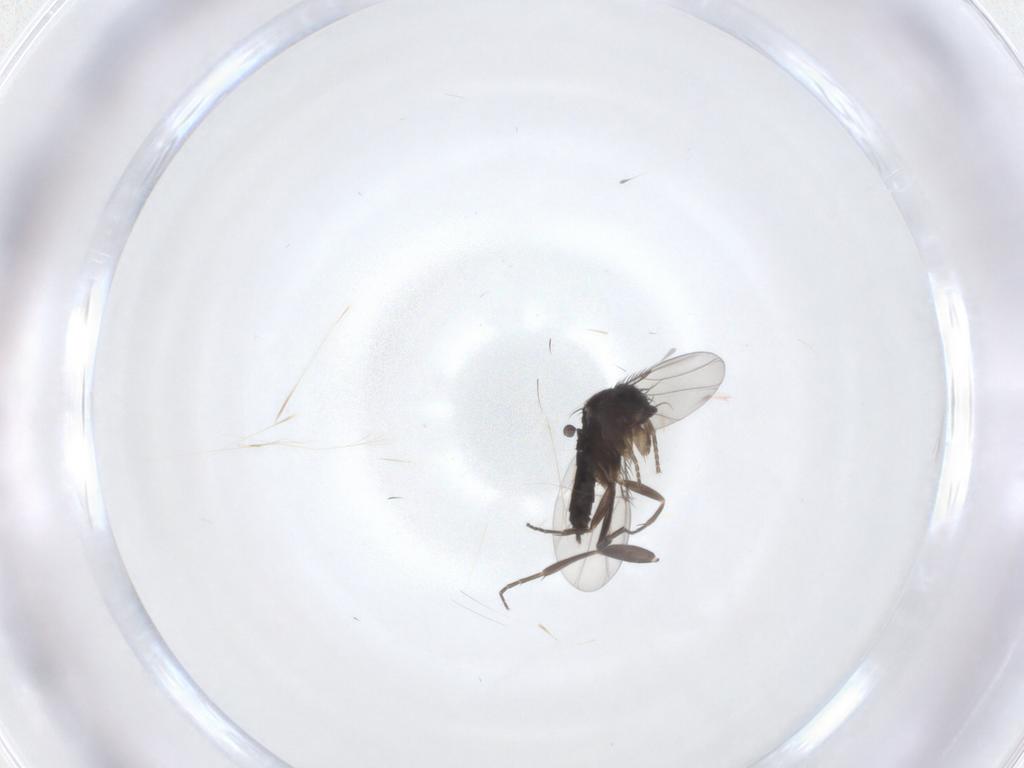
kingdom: Animalia
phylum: Arthropoda
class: Insecta
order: Diptera
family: Phoridae
